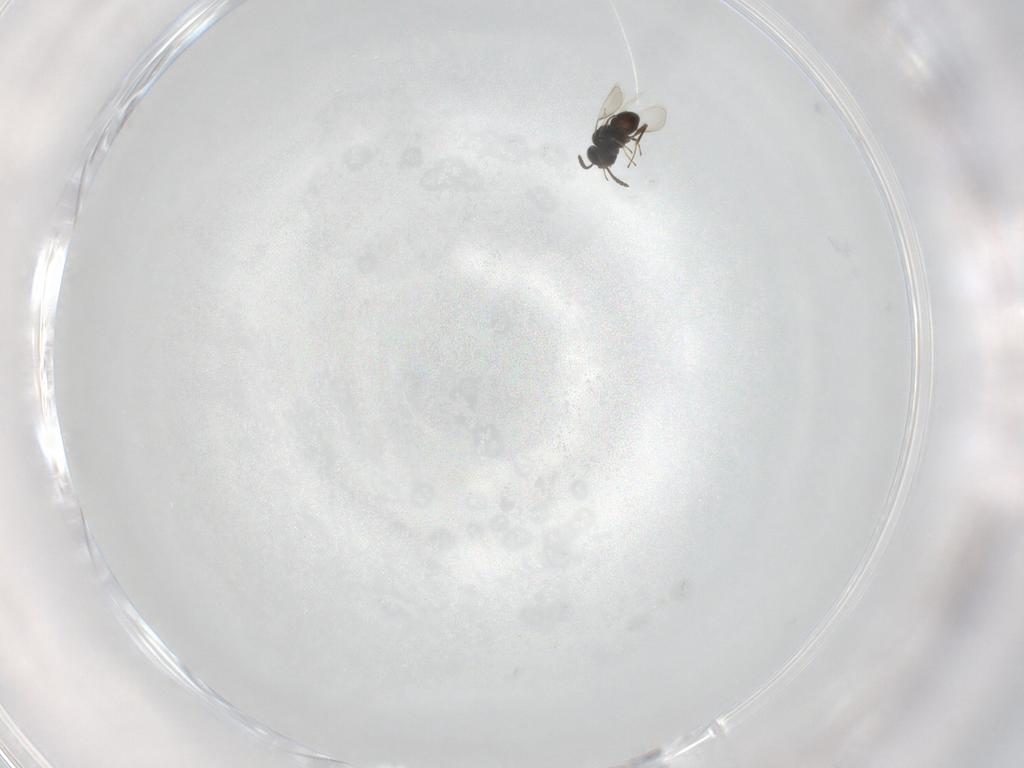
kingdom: Animalia
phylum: Arthropoda
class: Insecta
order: Hymenoptera
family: Scelionidae
